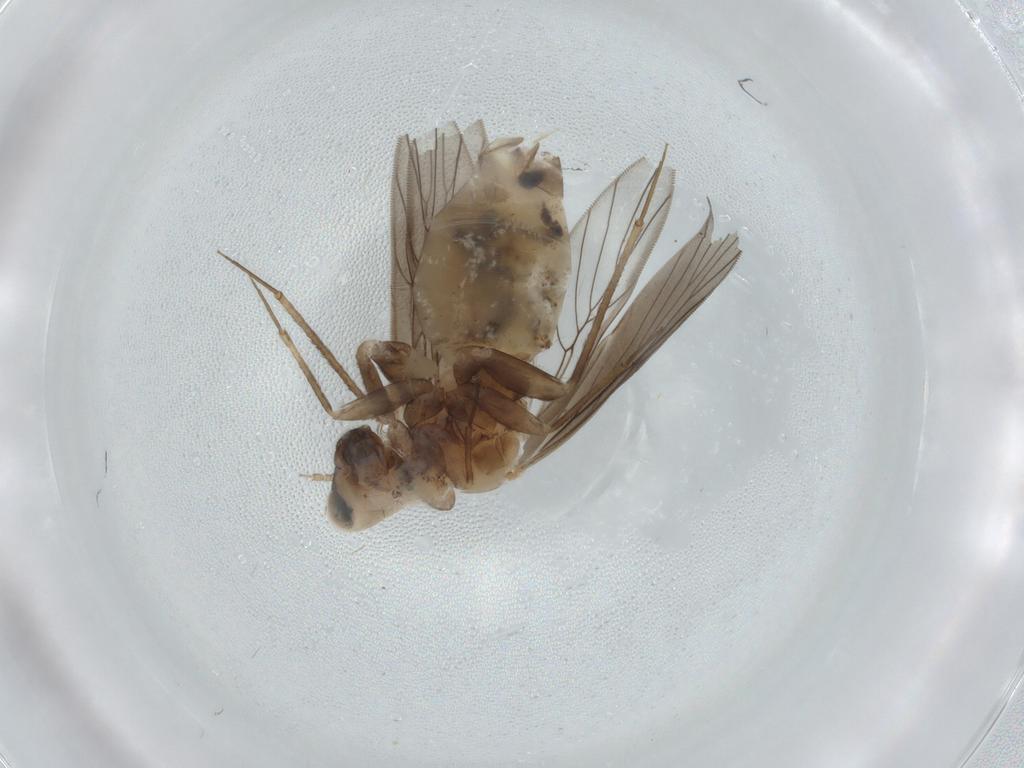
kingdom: Animalia
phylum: Arthropoda
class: Insecta
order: Psocodea
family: Lepidopsocidae
